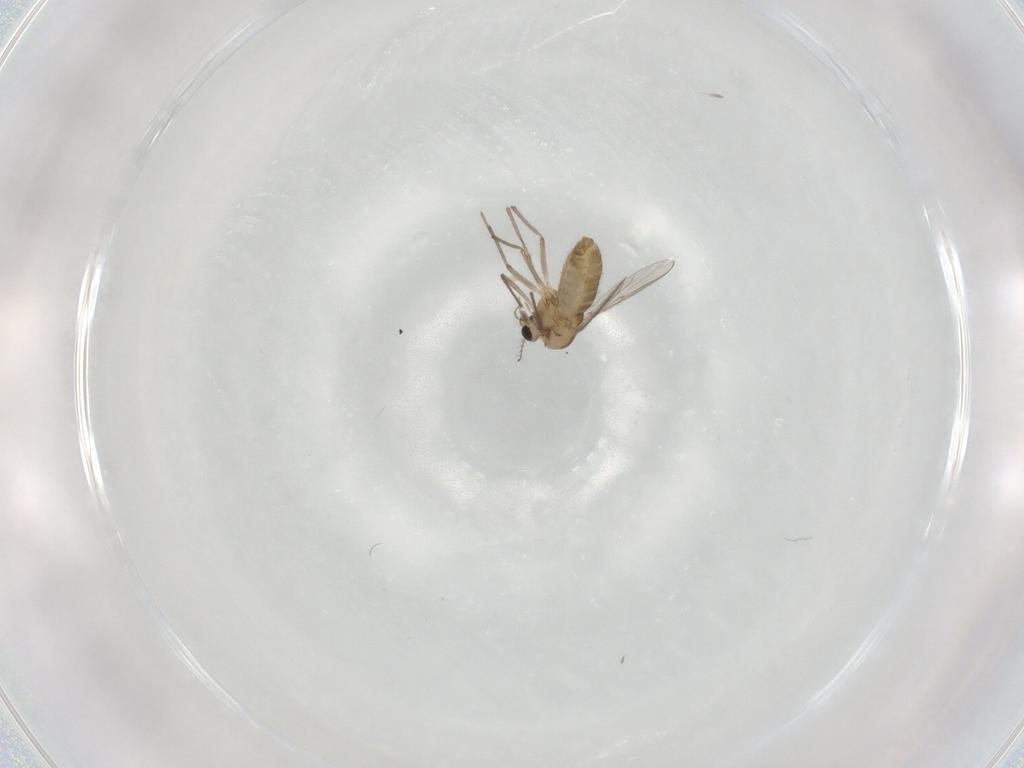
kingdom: Animalia
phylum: Arthropoda
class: Insecta
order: Diptera
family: Chironomidae
